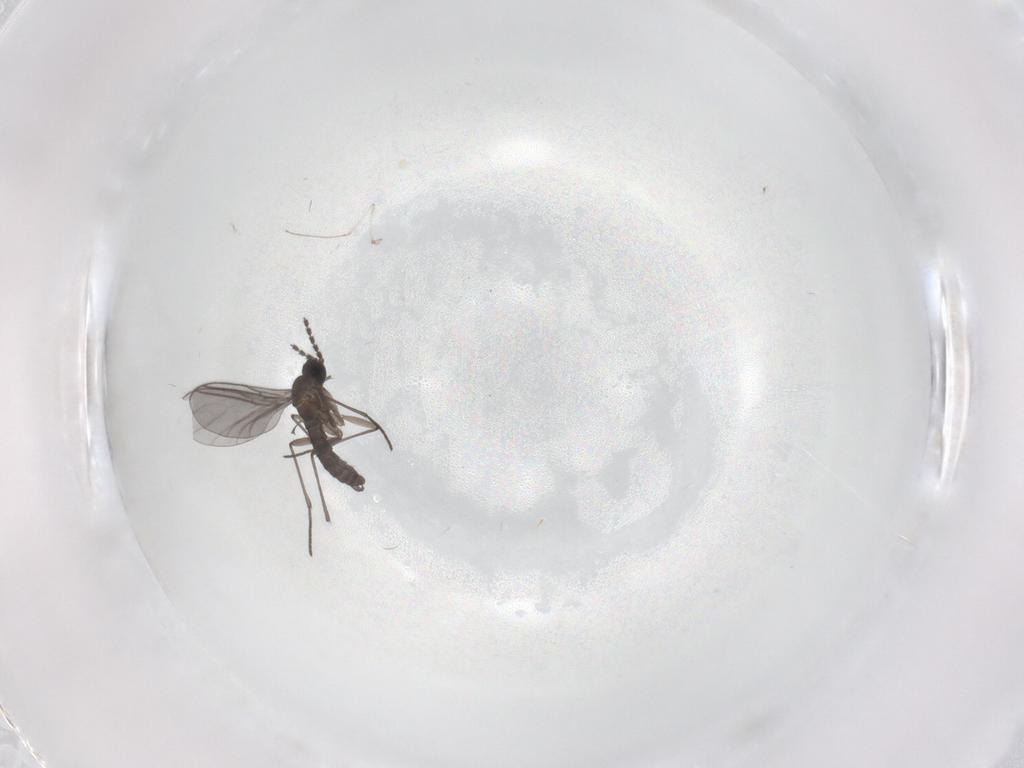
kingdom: Animalia
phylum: Arthropoda
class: Insecta
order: Diptera
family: Cecidomyiidae
